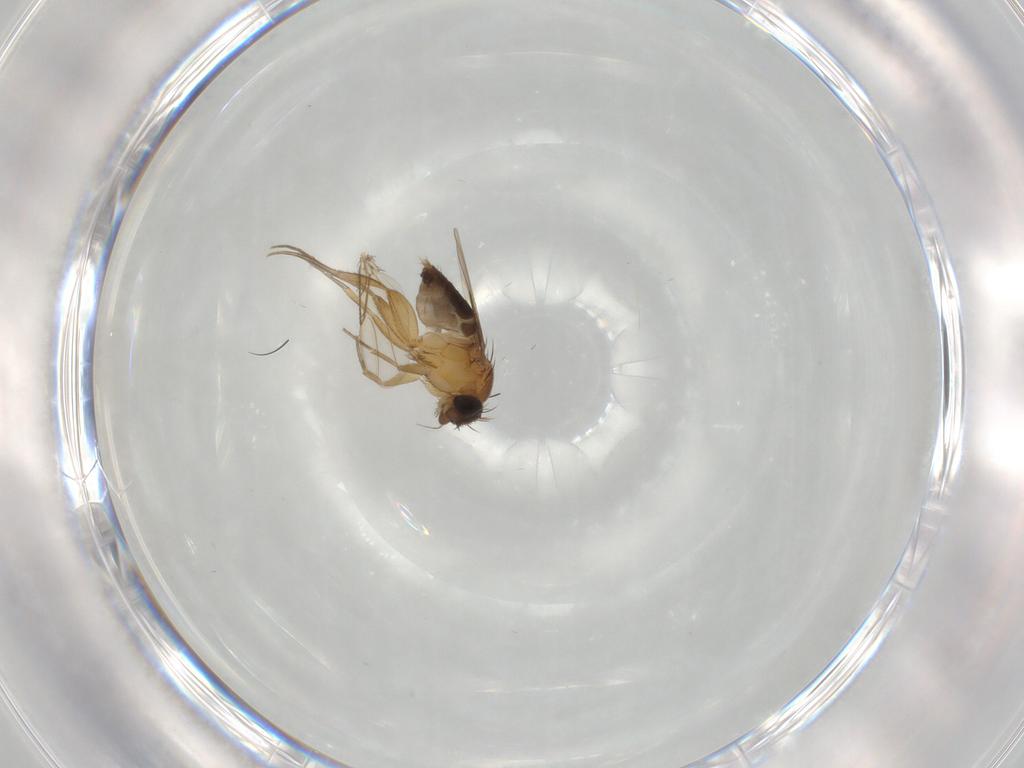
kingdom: Animalia
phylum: Arthropoda
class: Insecta
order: Diptera
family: Phoridae
